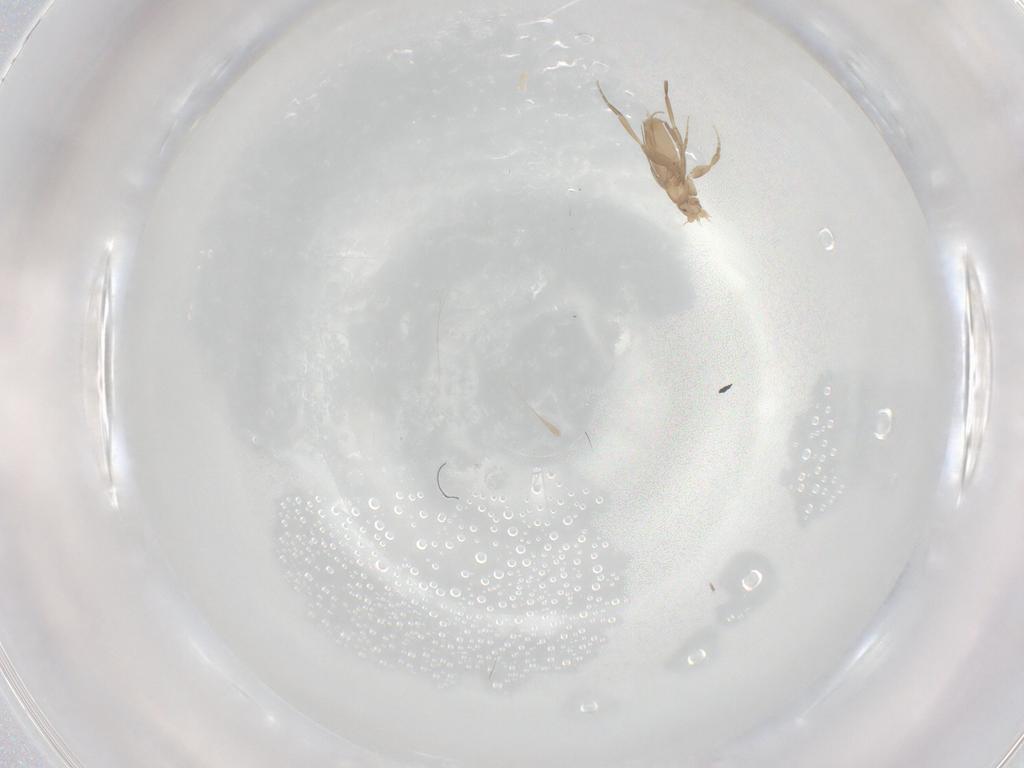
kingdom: Animalia
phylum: Arthropoda
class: Insecta
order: Diptera
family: Phoridae
